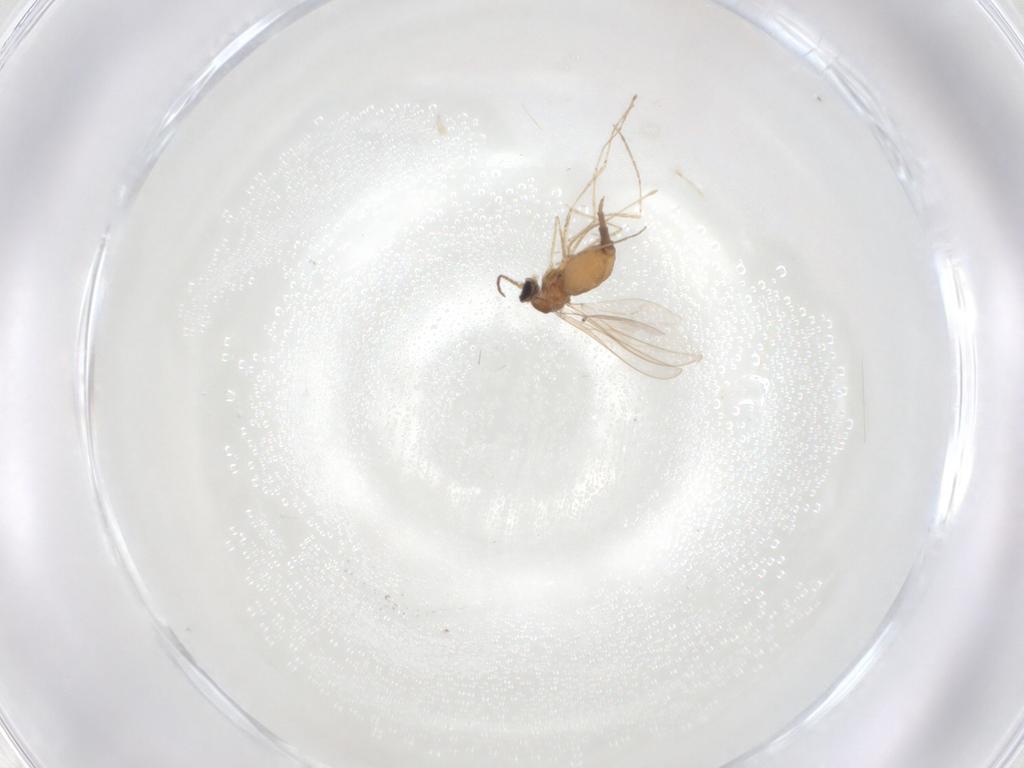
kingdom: Animalia
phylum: Arthropoda
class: Insecta
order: Diptera
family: Cecidomyiidae
